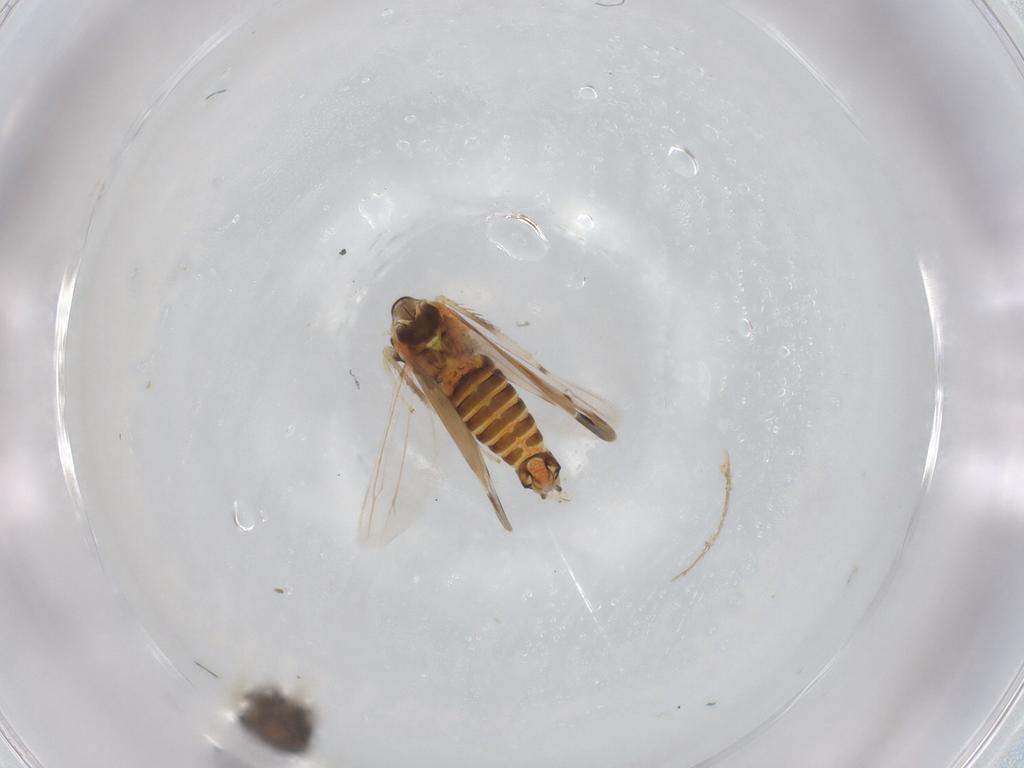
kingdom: Animalia
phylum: Arthropoda
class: Insecta
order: Hemiptera
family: Cicadellidae
